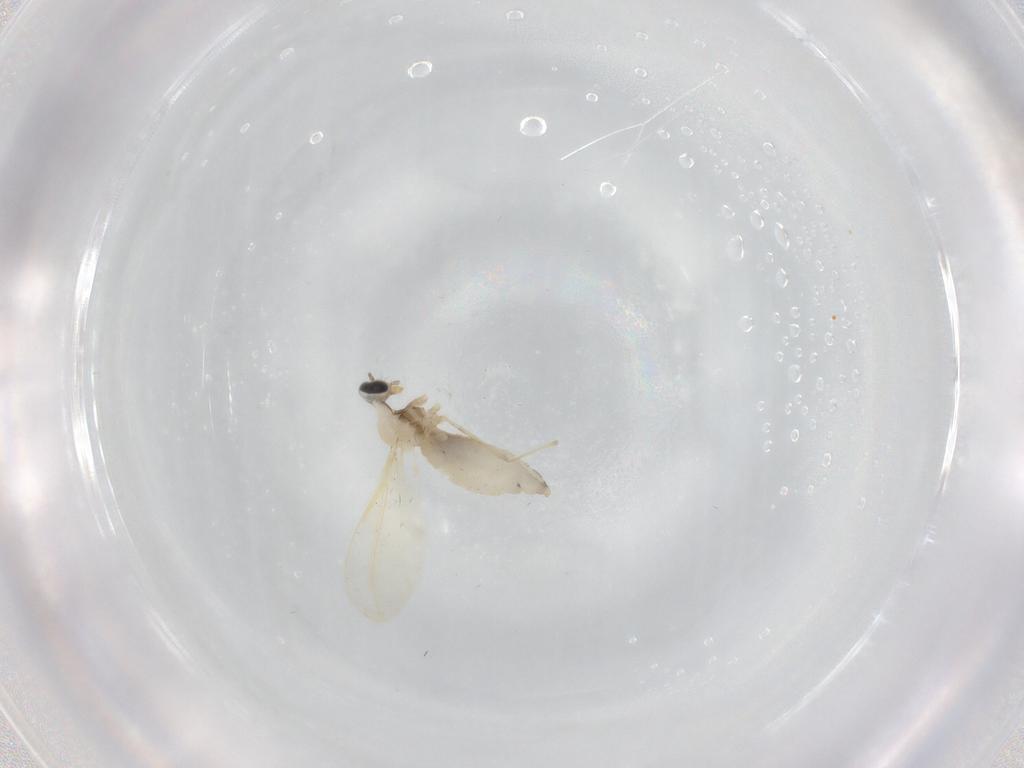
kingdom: Animalia
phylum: Arthropoda
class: Insecta
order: Diptera
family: Cecidomyiidae
